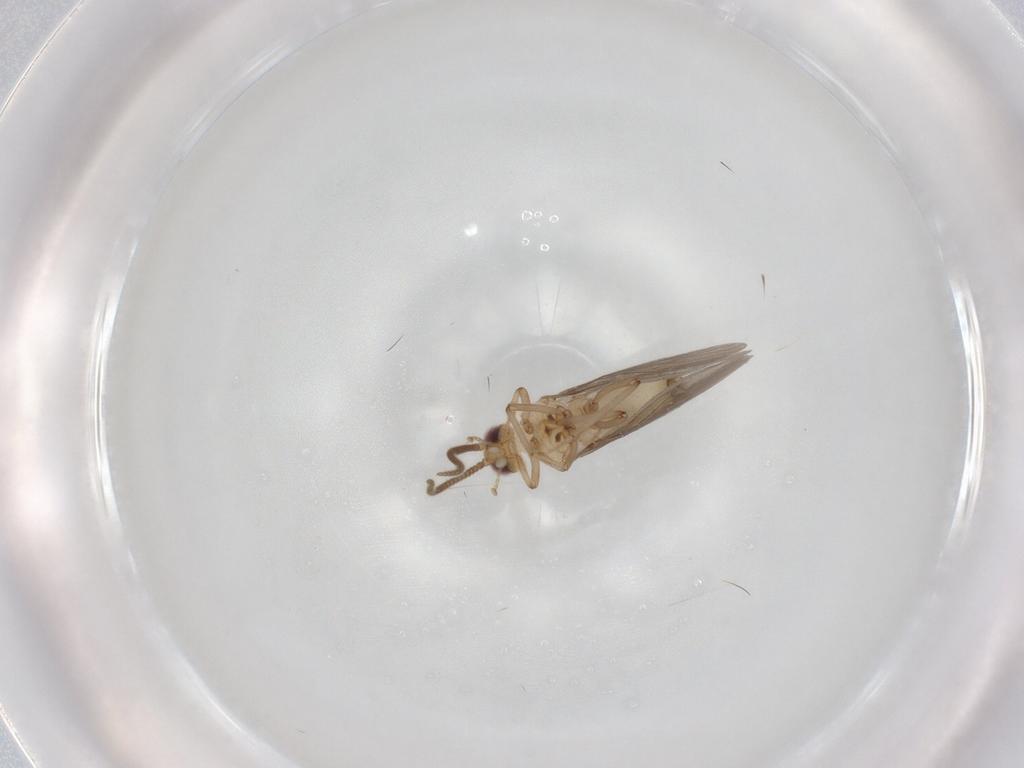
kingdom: Animalia
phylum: Arthropoda
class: Insecta
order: Neuroptera
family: Coniopterygidae
